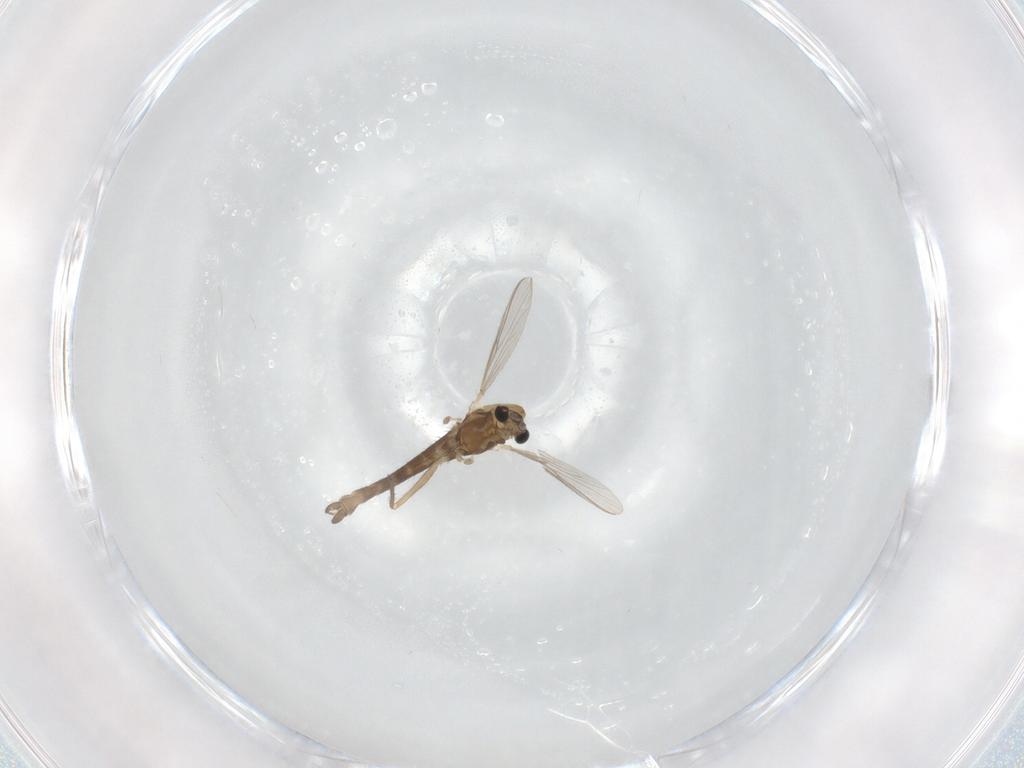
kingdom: Animalia
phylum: Arthropoda
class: Insecta
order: Diptera
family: Chironomidae
